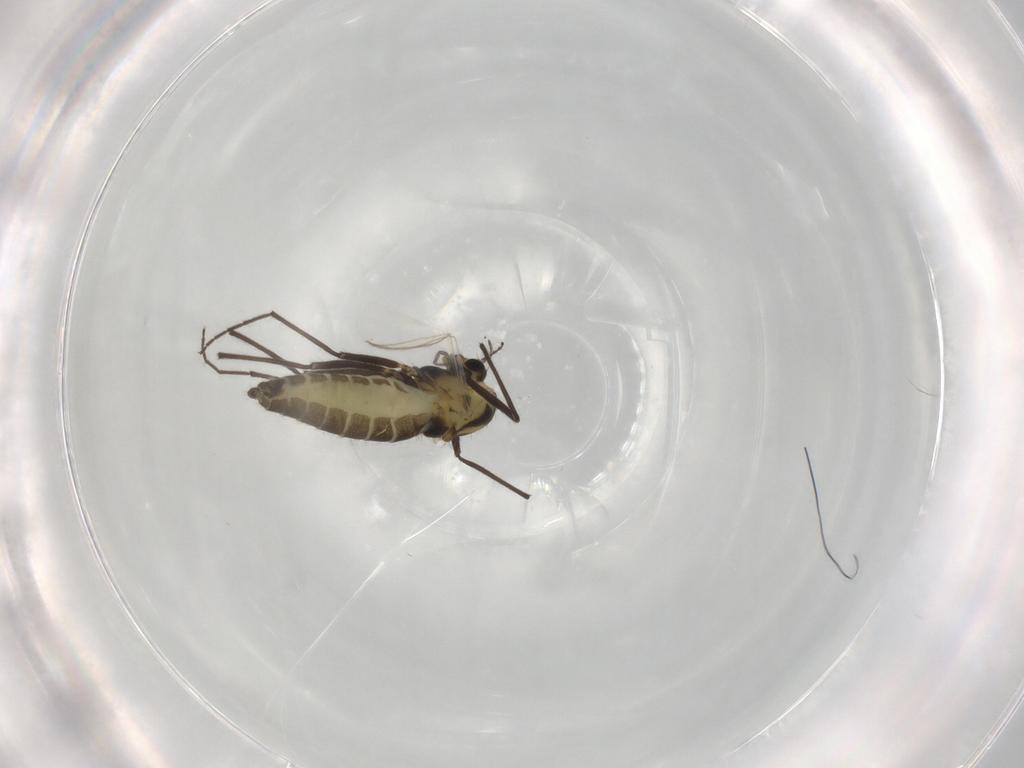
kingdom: Animalia
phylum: Arthropoda
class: Insecta
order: Diptera
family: Chironomidae
